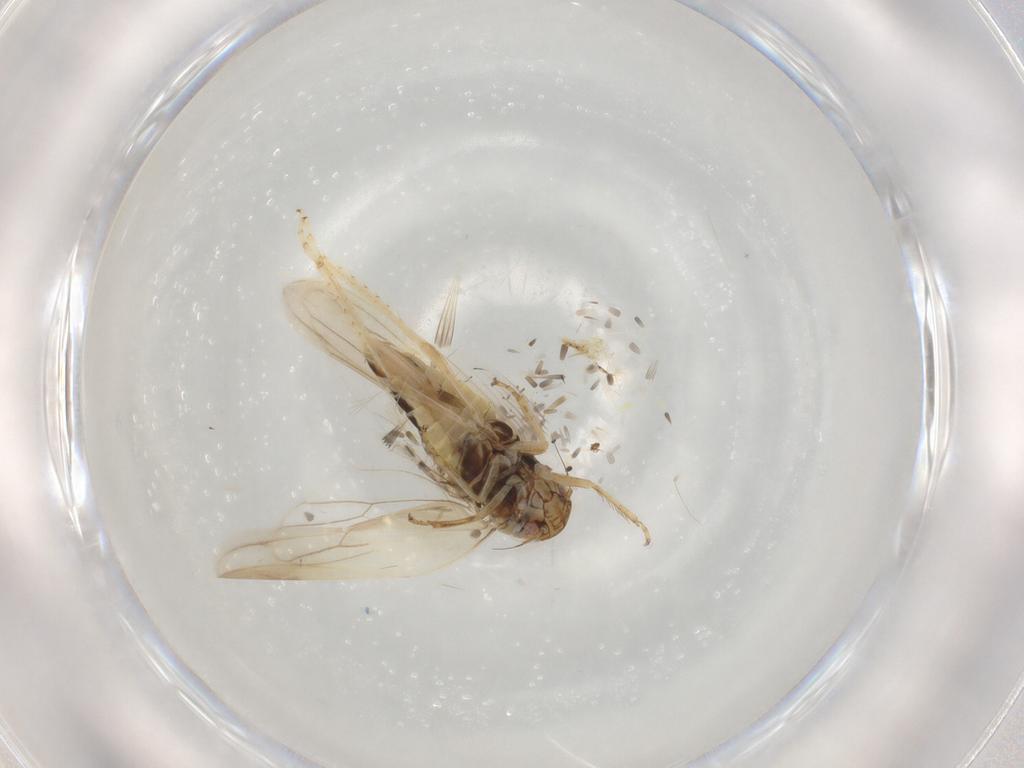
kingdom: Animalia
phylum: Arthropoda
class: Insecta
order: Hemiptera
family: Cicadellidae
